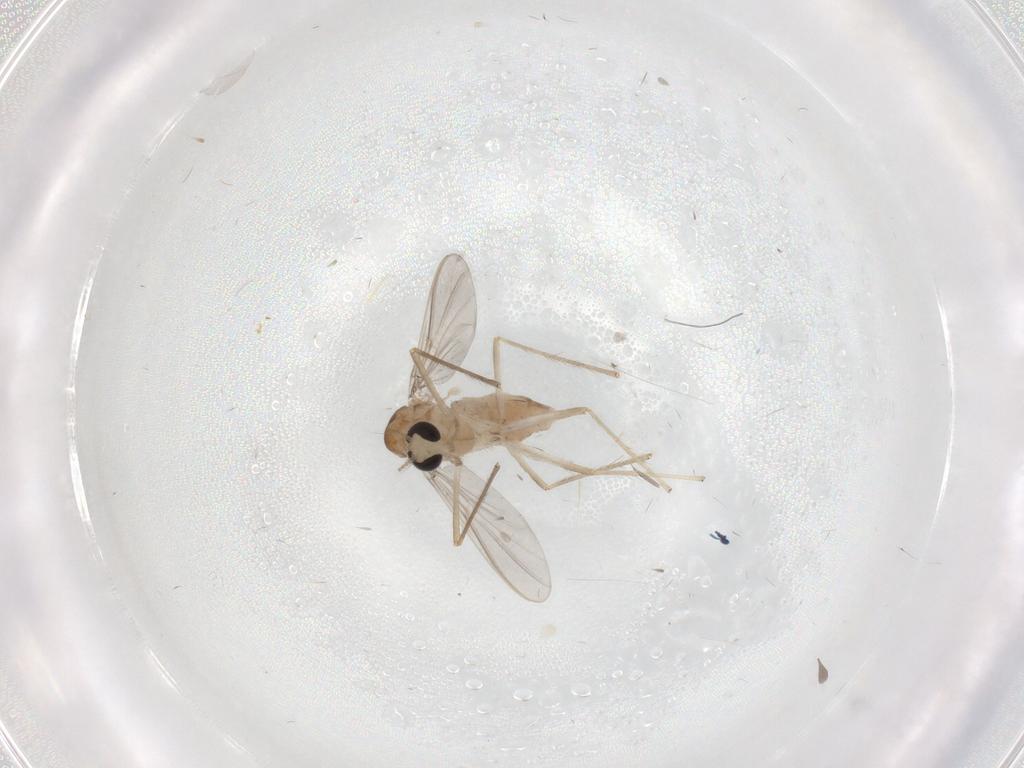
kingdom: Animalia
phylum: Arthropoda
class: Insecta
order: Diptera
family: Chironomidae
